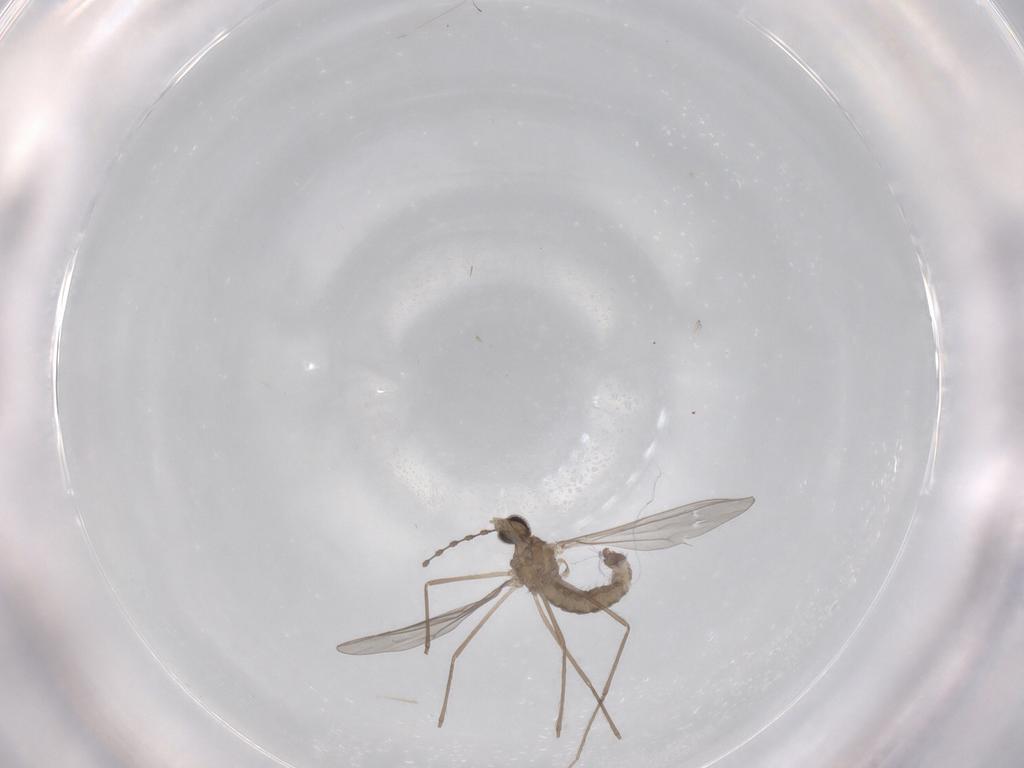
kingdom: Animalia
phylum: Arthropoda
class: Insecta
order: Diptera
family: Cecidomyiidae
